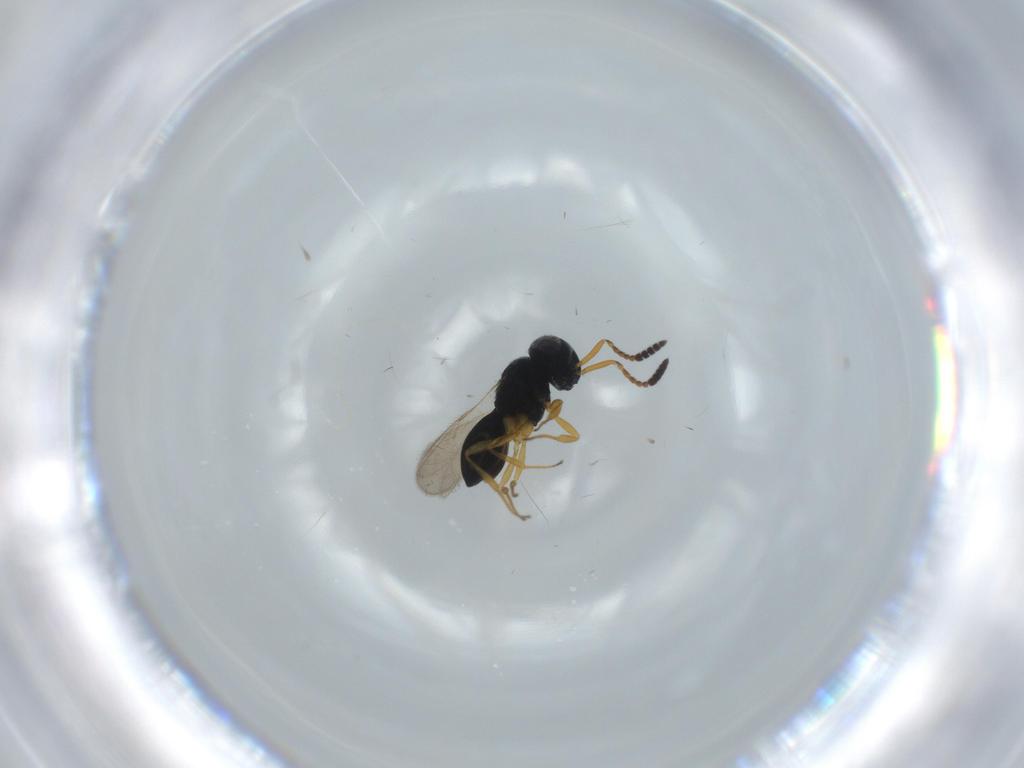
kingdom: Animalia
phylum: Arthropoda
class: Insecta
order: Hymenoptera
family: Scelionidae
